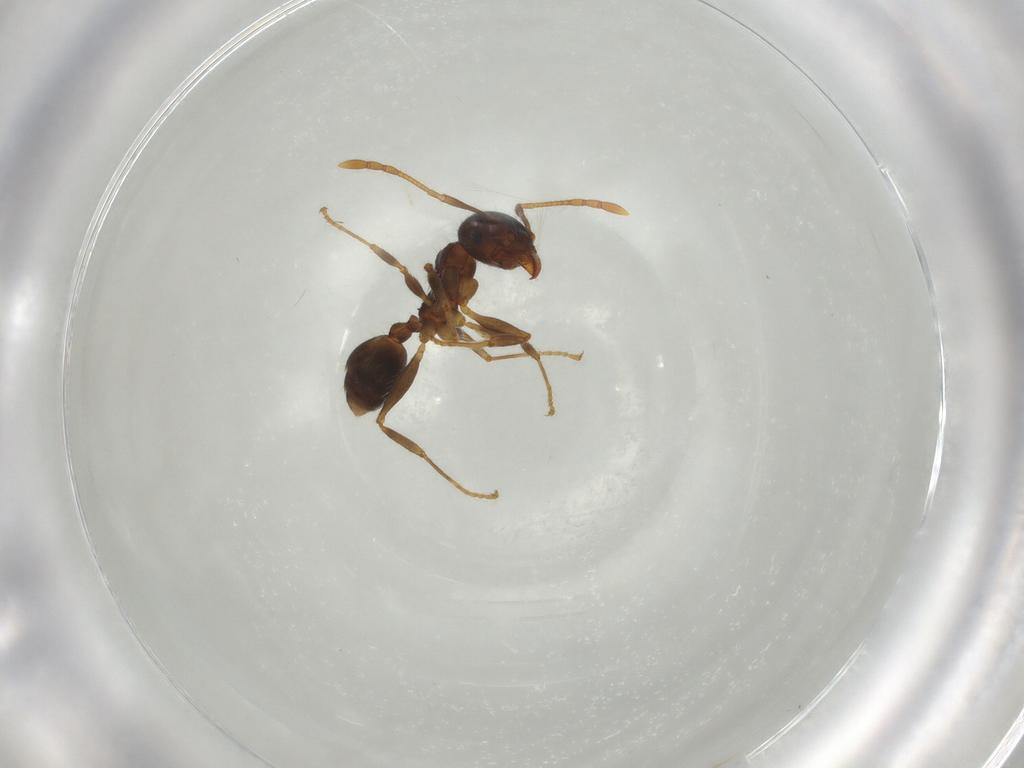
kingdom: Animalia
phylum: Arthropoda
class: Insecta
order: Hymenoptera
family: Formicidae
